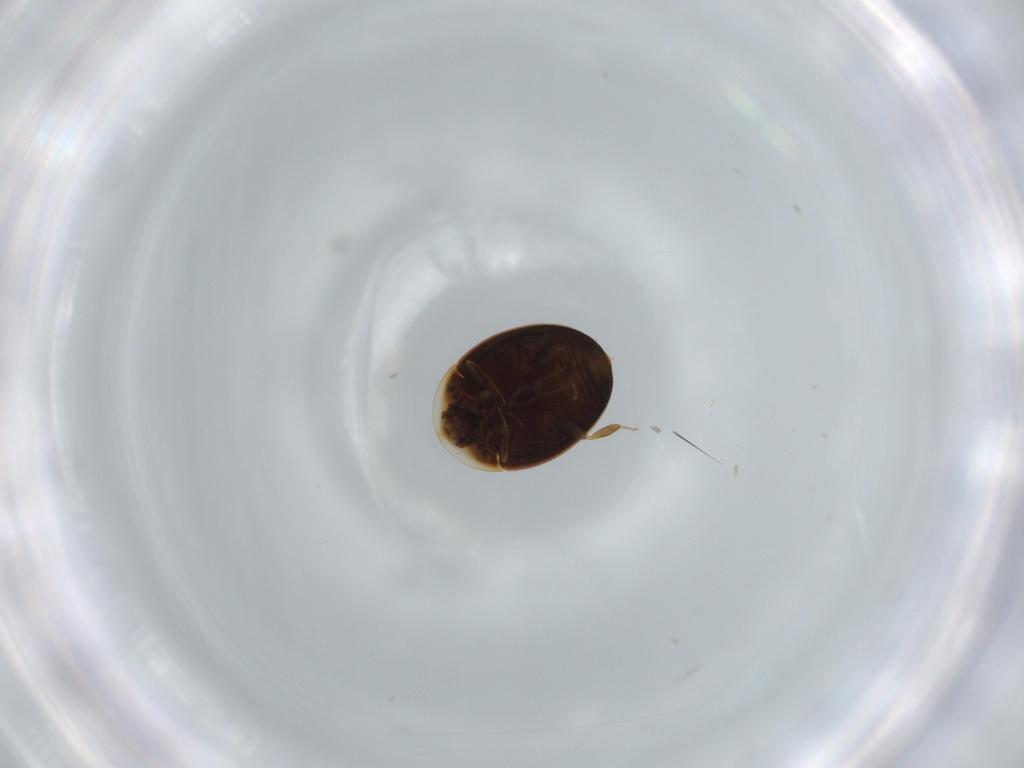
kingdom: Animalia
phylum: Arthropoda
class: Insecta
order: Coleoptera
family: Corylophidae
